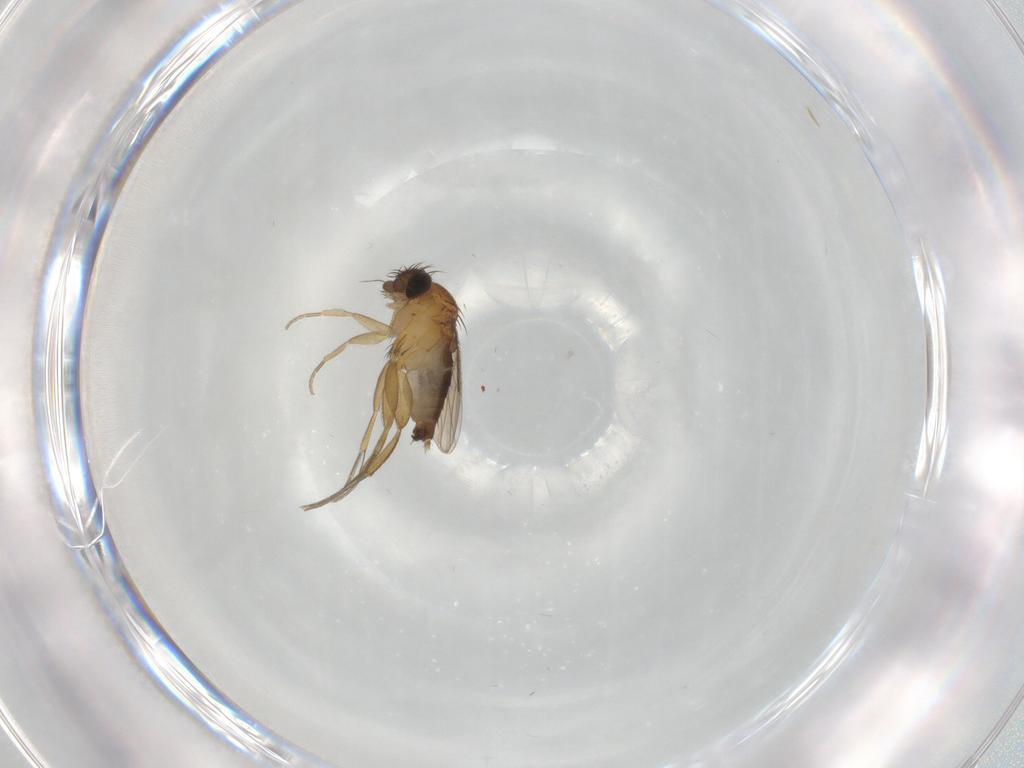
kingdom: Animalia
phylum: Arthropoda
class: Insecta
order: Diptera
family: Phoridae
